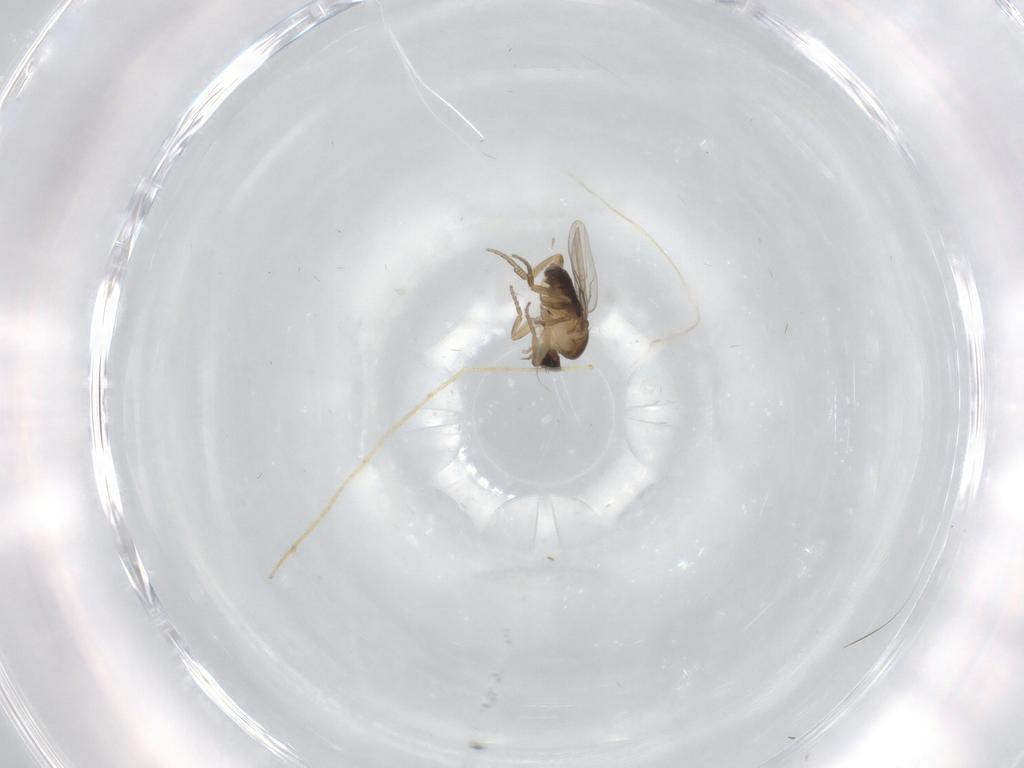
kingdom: Animalia
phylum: Arthropoda
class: Insecta
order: Diptera
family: Phoridae
